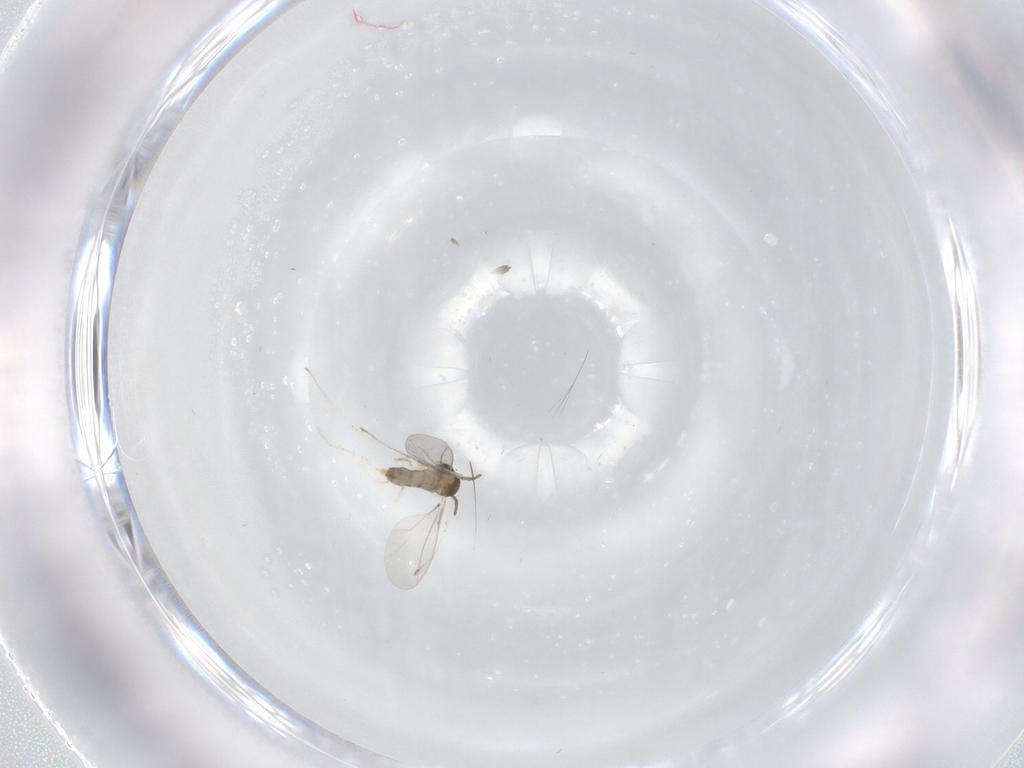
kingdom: Animalia
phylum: Arthropoda
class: Insecta
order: Diptera
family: Cecidomyiidae
